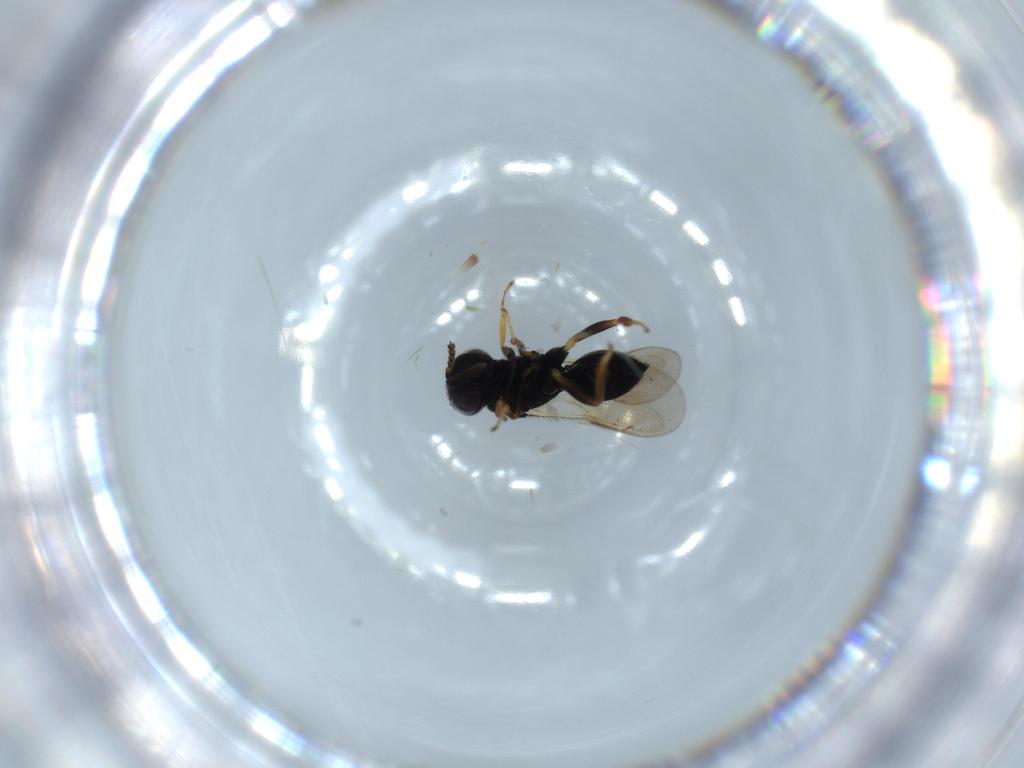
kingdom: Animalia
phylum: Arthropoda
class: Insecta
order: Hymenoptera
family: Pteromalidae
